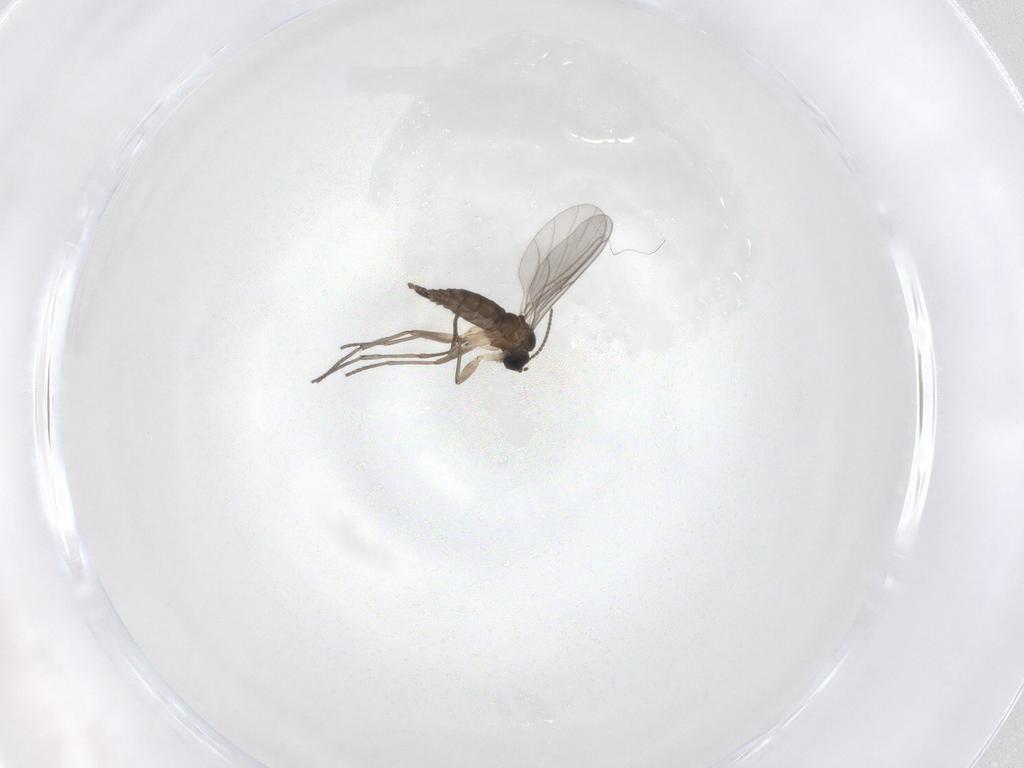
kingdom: Animalia
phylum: Arthropoda
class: Insecta
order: Diptera
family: Sciaridae
